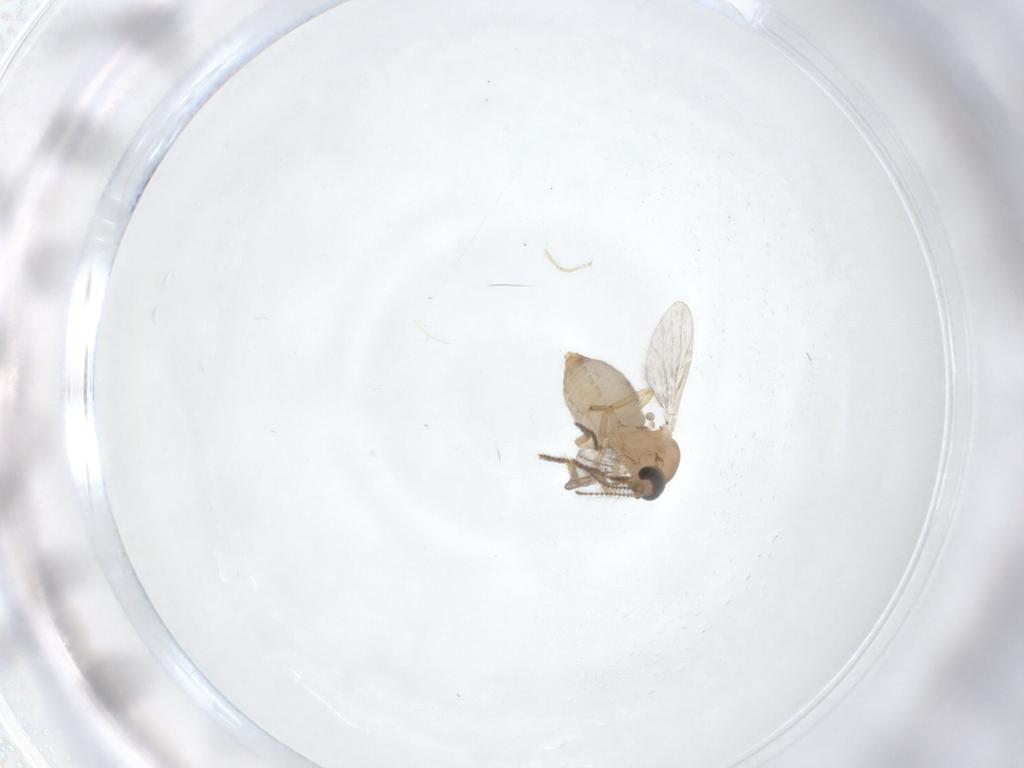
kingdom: Animalia
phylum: Arthropoda
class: Insecta
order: Diptera
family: Ceratopogonidae
